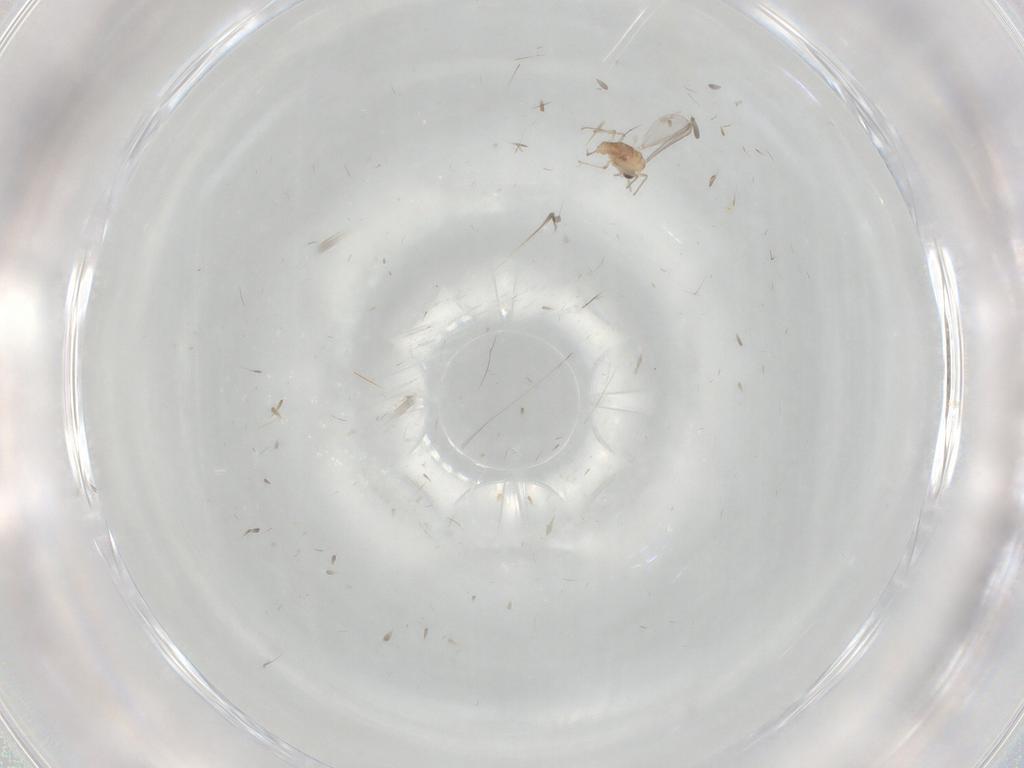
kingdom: Animalia
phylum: Arthropoda
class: Insecta
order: Diptera
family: Chironomidae
